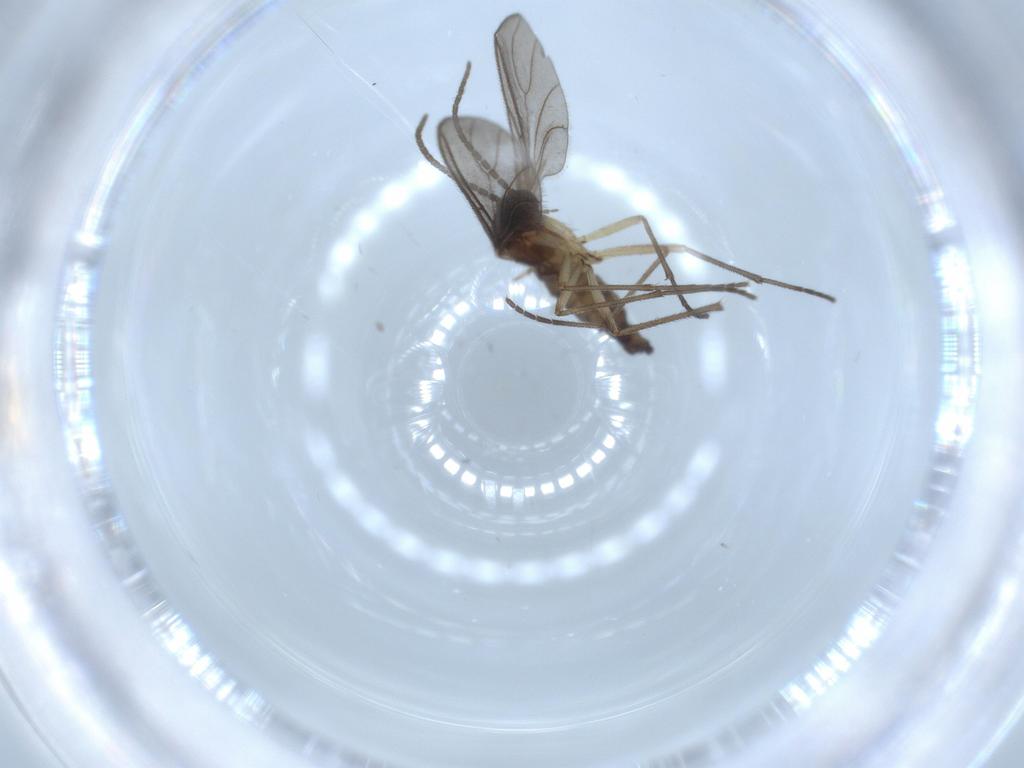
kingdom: Animalia
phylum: Arthropoda
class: Insecta
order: Diptera
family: Sciaridae
